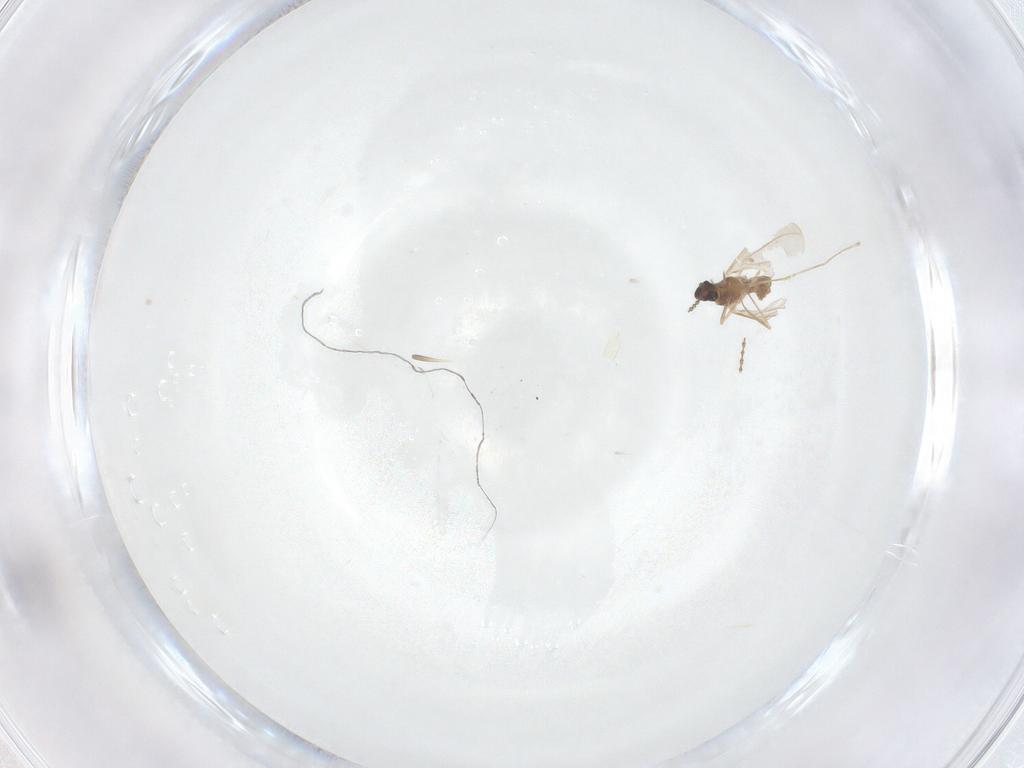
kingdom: Animalia
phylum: Arthropoda
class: Insecta
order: Diptera
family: Cecidomyiidae
